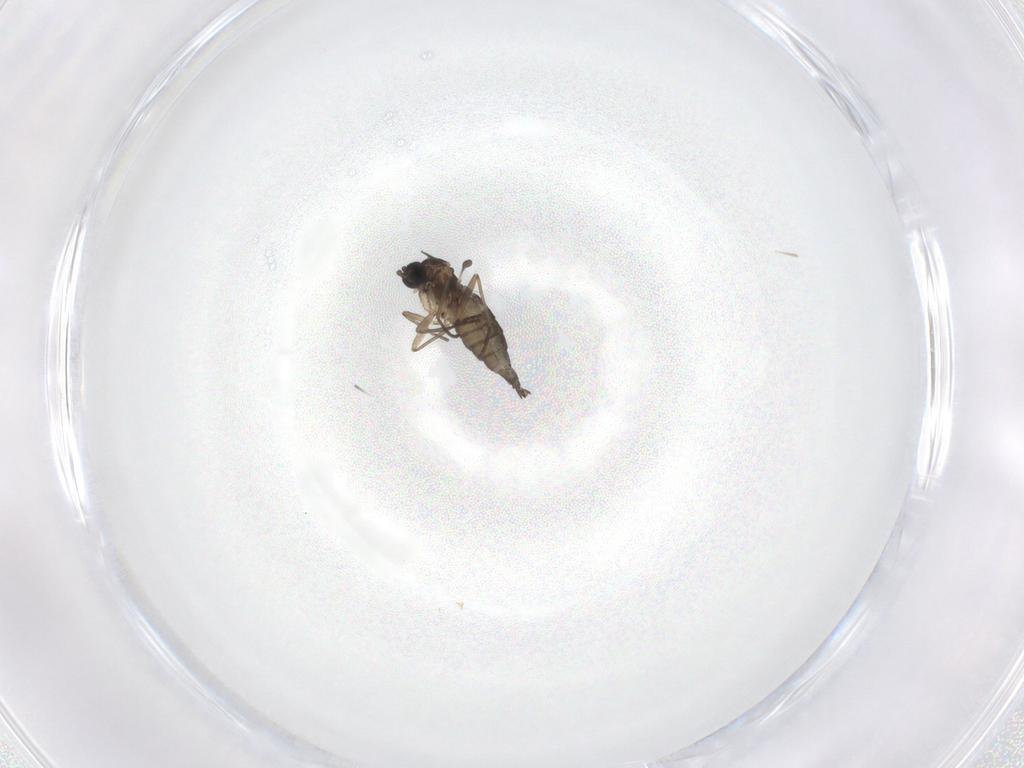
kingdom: Animalia
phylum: Arthropoda
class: Insecta
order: Diptera
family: Sciaridae
